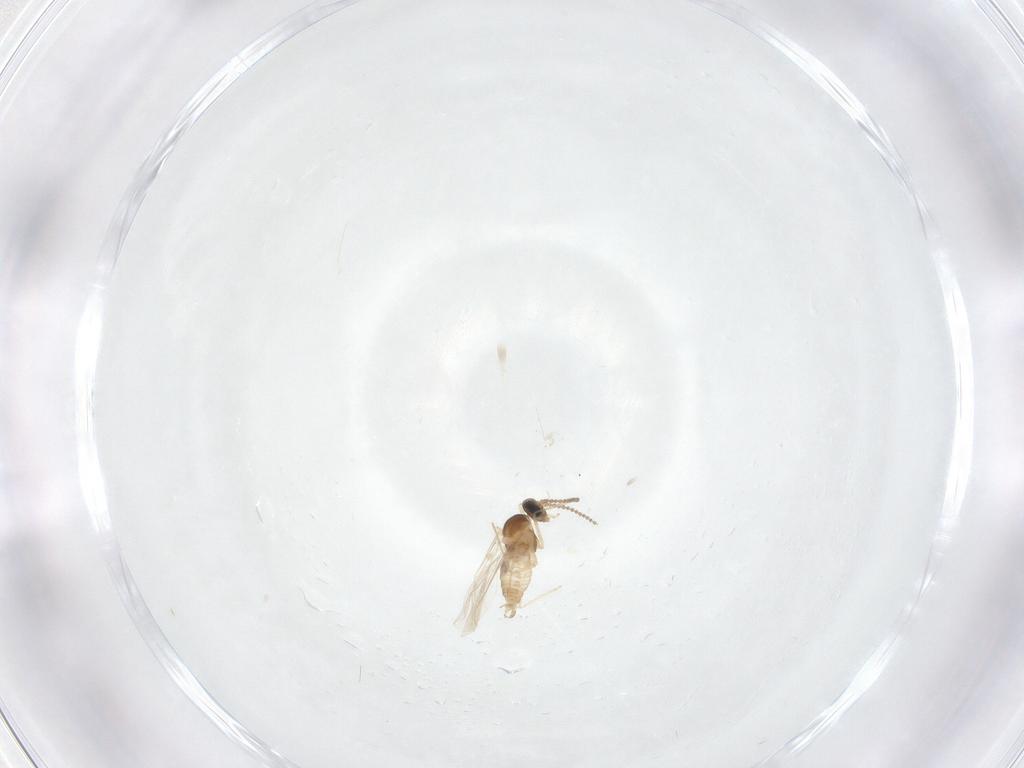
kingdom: Animalia
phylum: Arthropoda
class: Insecta
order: Diptera
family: Cecidomyiidae
